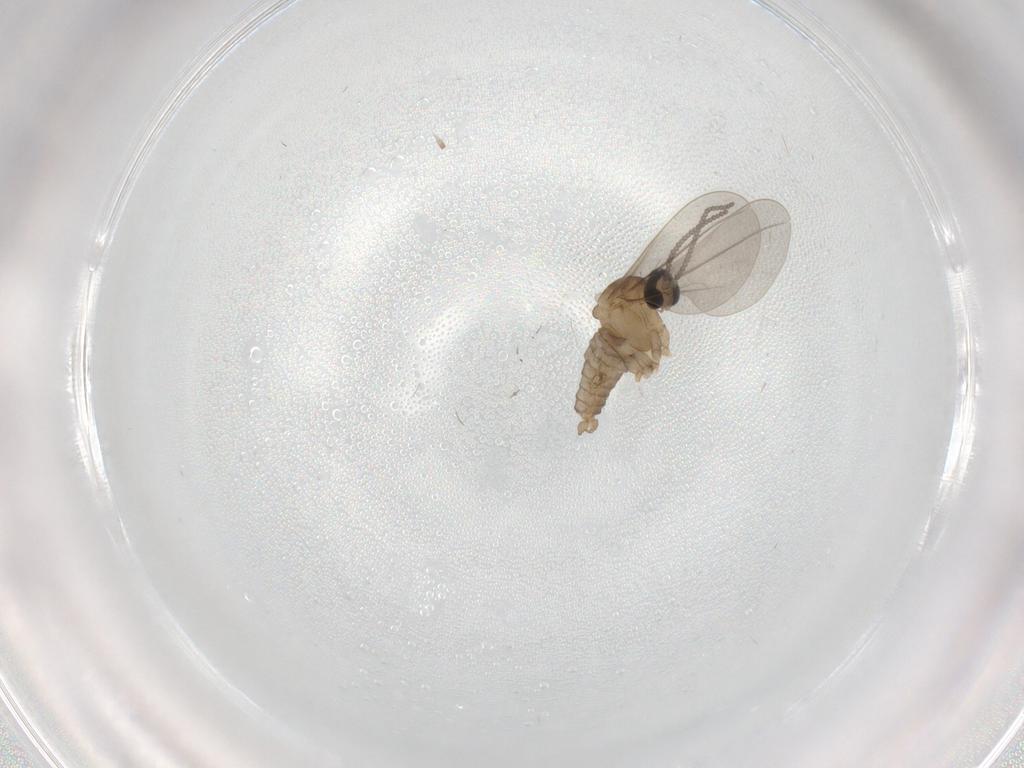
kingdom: Animalia
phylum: Arthropoda
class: Insecta
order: Diptera
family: Cecidomyiidae
